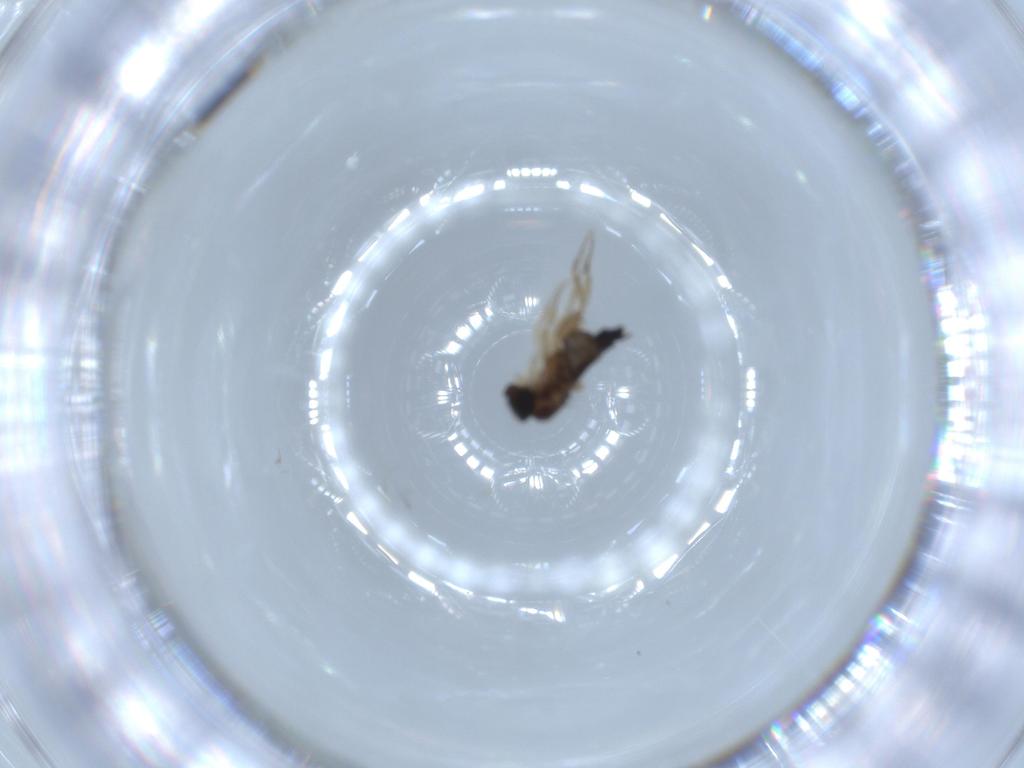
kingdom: Animalia
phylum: Arthropoda
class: Insecta
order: Diptera
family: Phoridae
